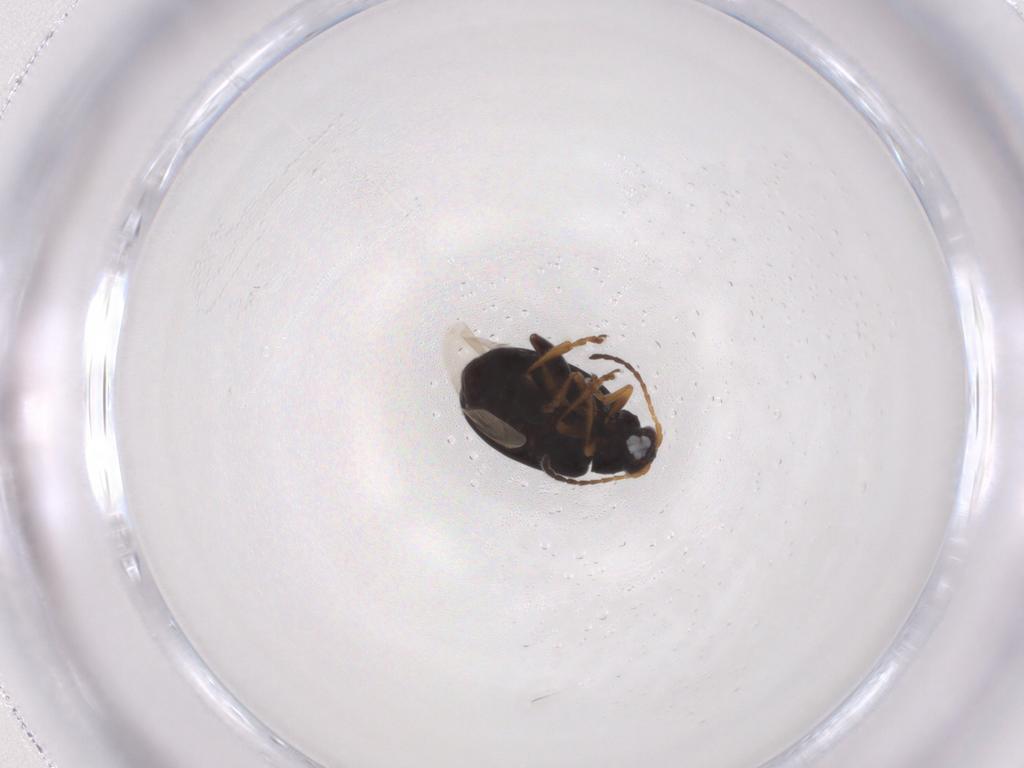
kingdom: Animalia
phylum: Arthropoda
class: Insecta
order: Coleoptera
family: Chrysomelidae
